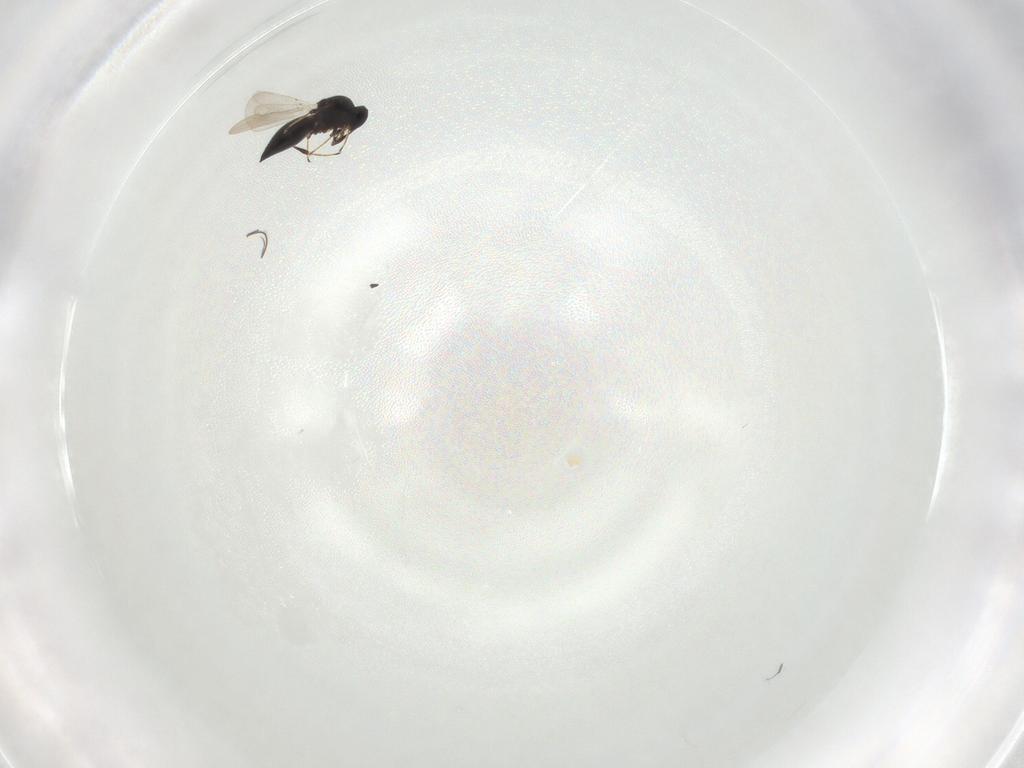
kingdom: Animalia
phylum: Arthropoda
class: Insecta
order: Hymenoptera
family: Platygastridae
